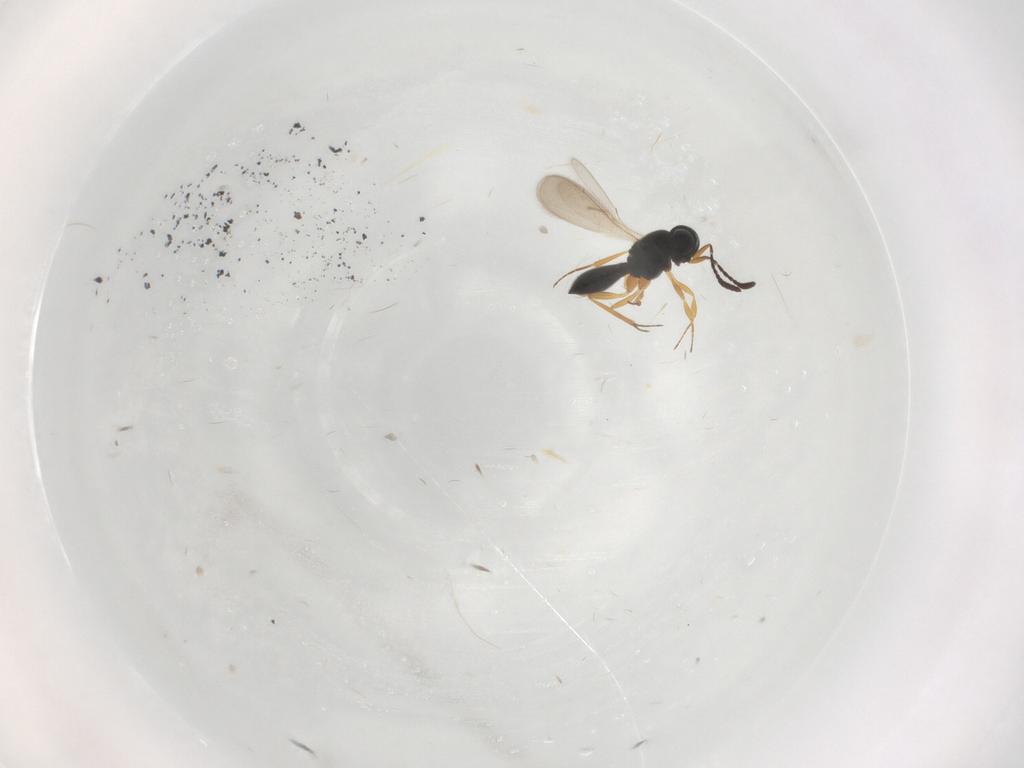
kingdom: Animalia
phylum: Arthropoda
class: Insecta
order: Hymenoptera
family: Scelionidae
